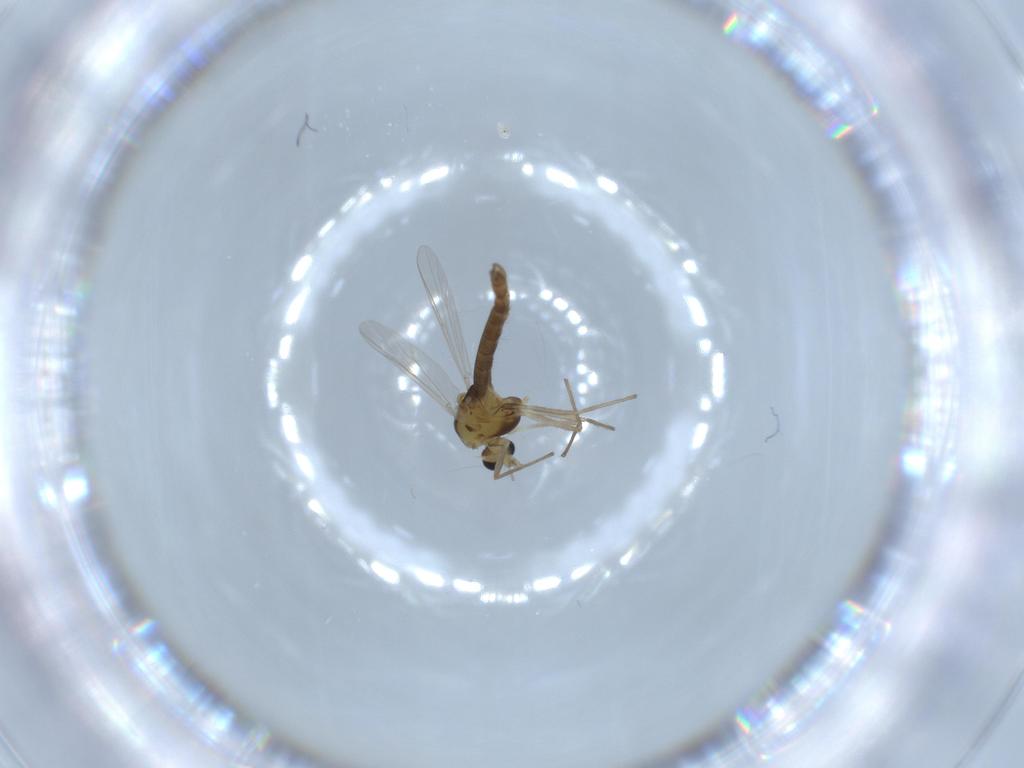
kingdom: Animalia
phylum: Arthropoda
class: Insecta
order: Diptera
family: Chironomidae
